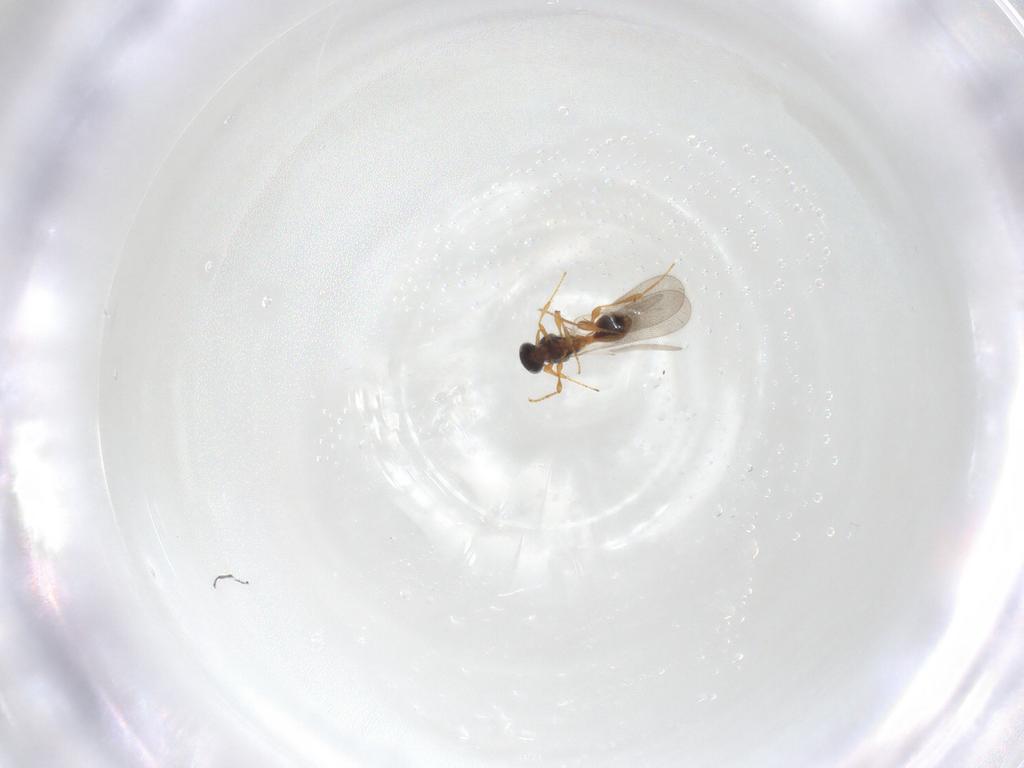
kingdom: Animalia
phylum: Arthropoda
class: Insecta
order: Hymenoptera
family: Platygastridae
